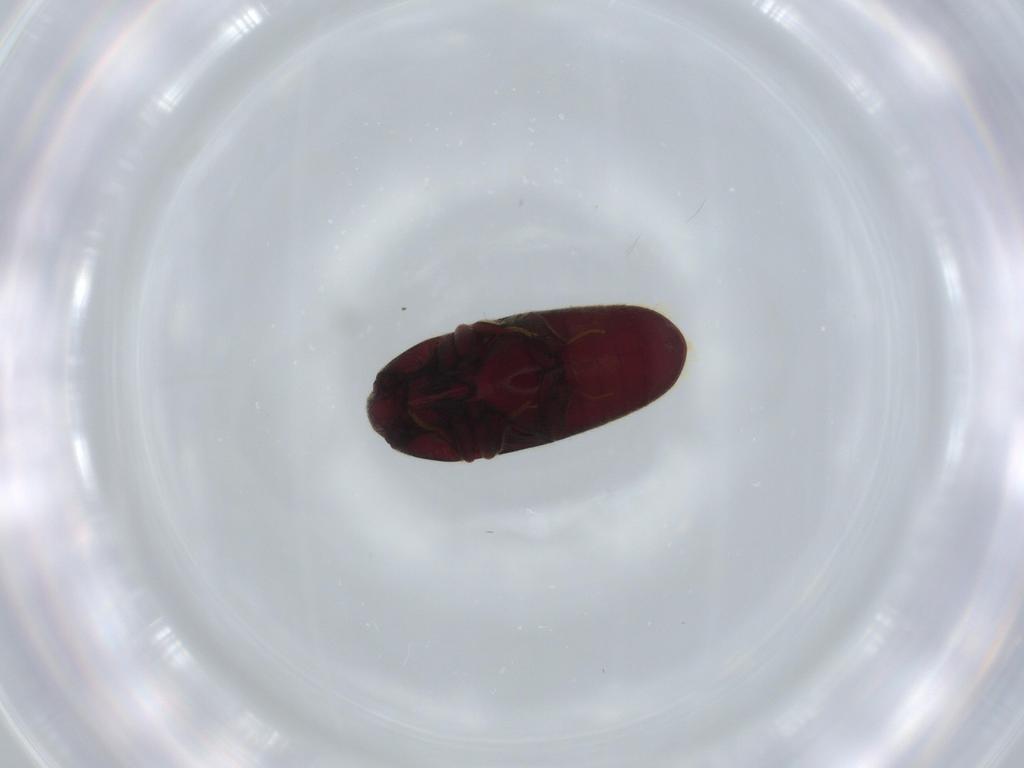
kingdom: Animalia
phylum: Arthropoda
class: Insecta
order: Coleoptera
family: Throscidae
